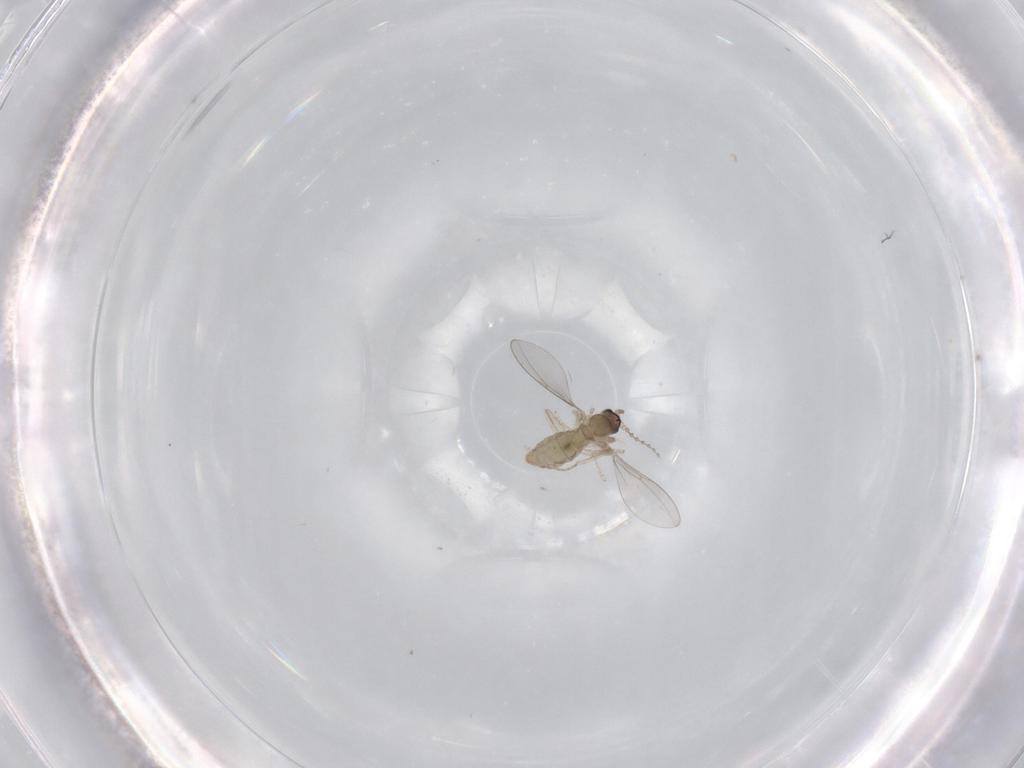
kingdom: Animalia
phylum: Arthropoda
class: Insecta
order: Diptera
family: Cecidomyiidae
